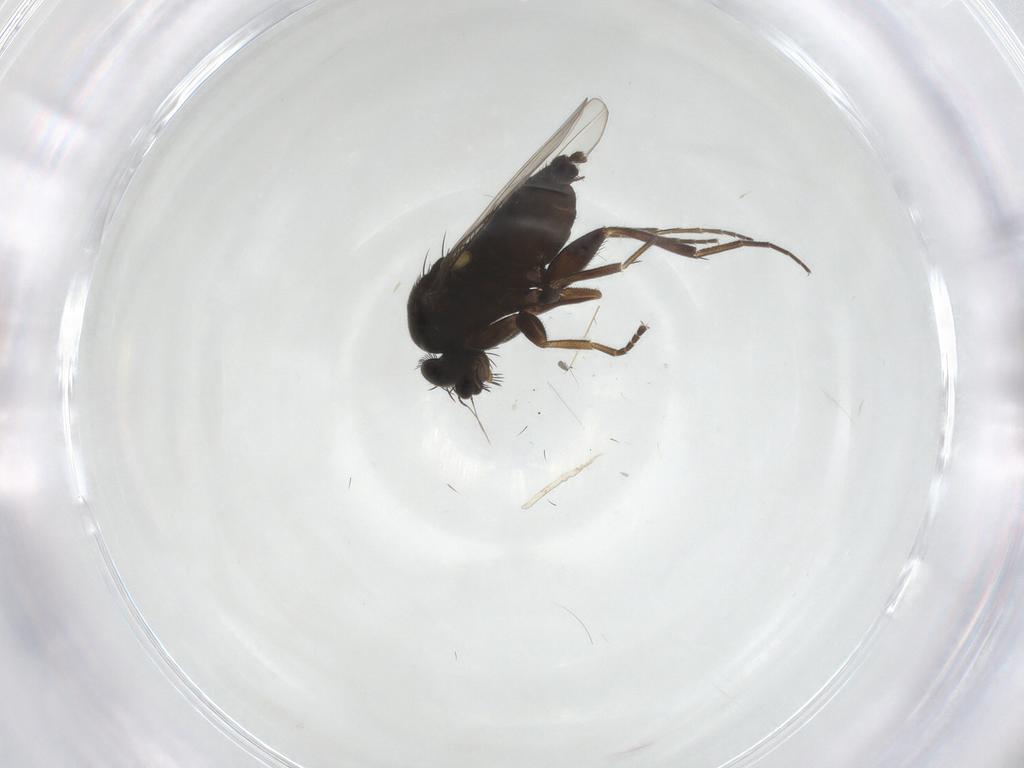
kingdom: Animalia
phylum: Arthropoda
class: Insecta
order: Diptera
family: Phoridae
